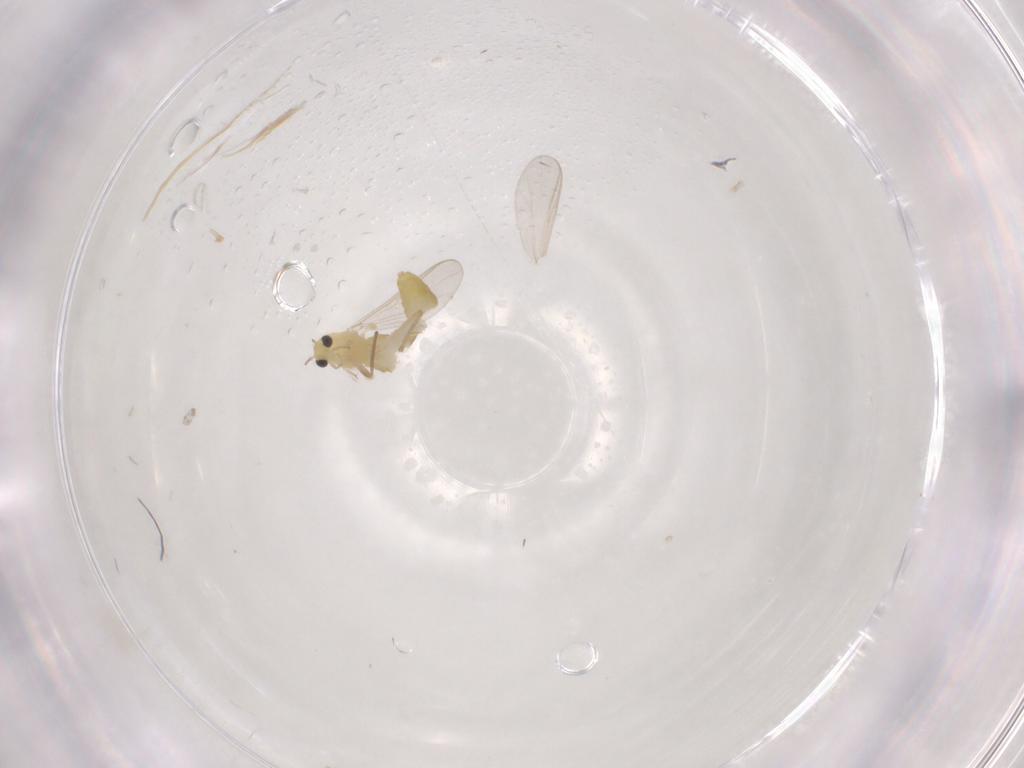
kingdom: Animalia
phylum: Arthropoda
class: Insecta
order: Diptera
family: Chironomidae
